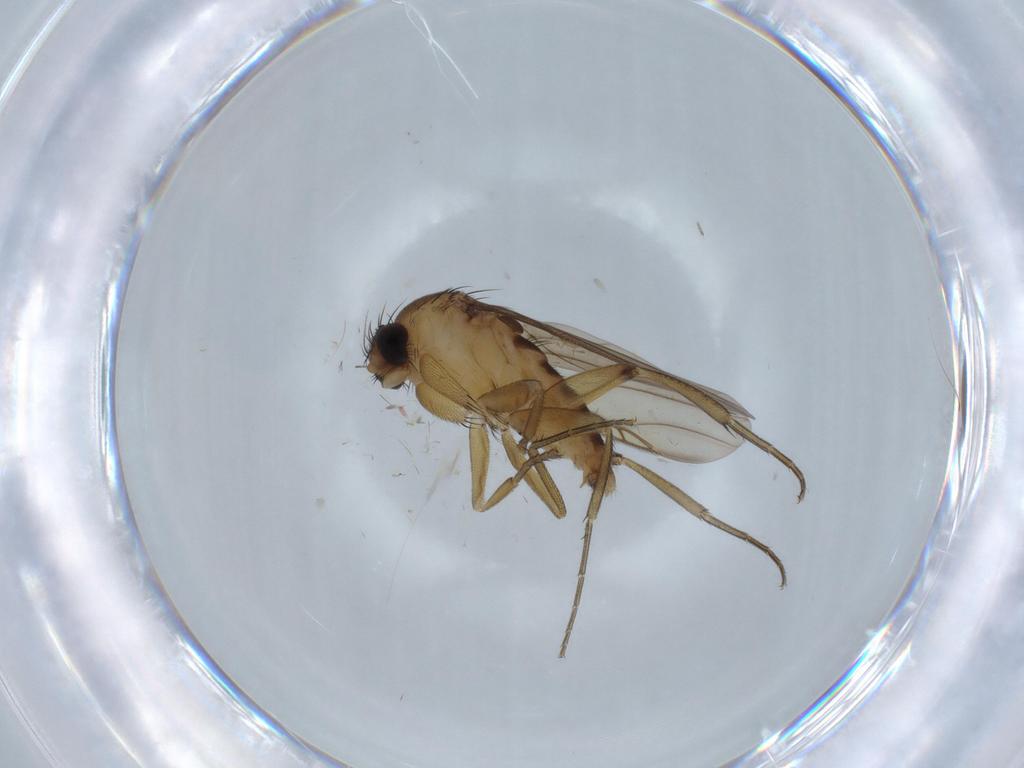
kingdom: Animalia
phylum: Arthropoda
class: Insecta
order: Diptera
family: Phoridae
